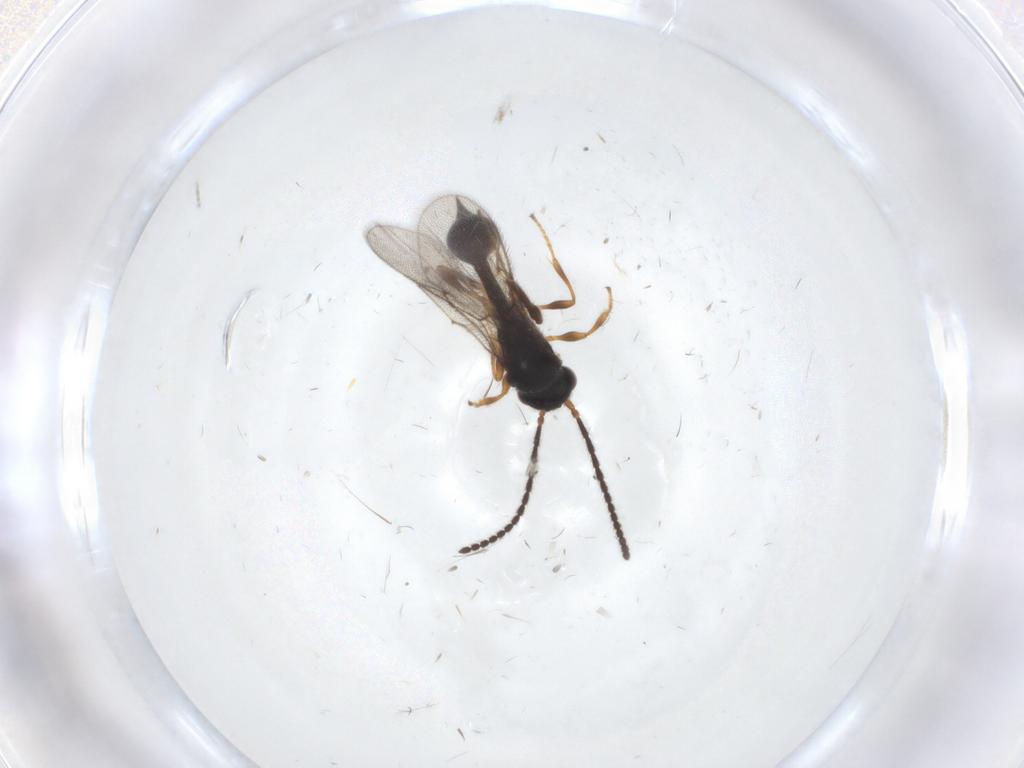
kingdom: Animalia
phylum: Arthropoda
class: Insecta
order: Hymenoptera
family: Diapriidae
